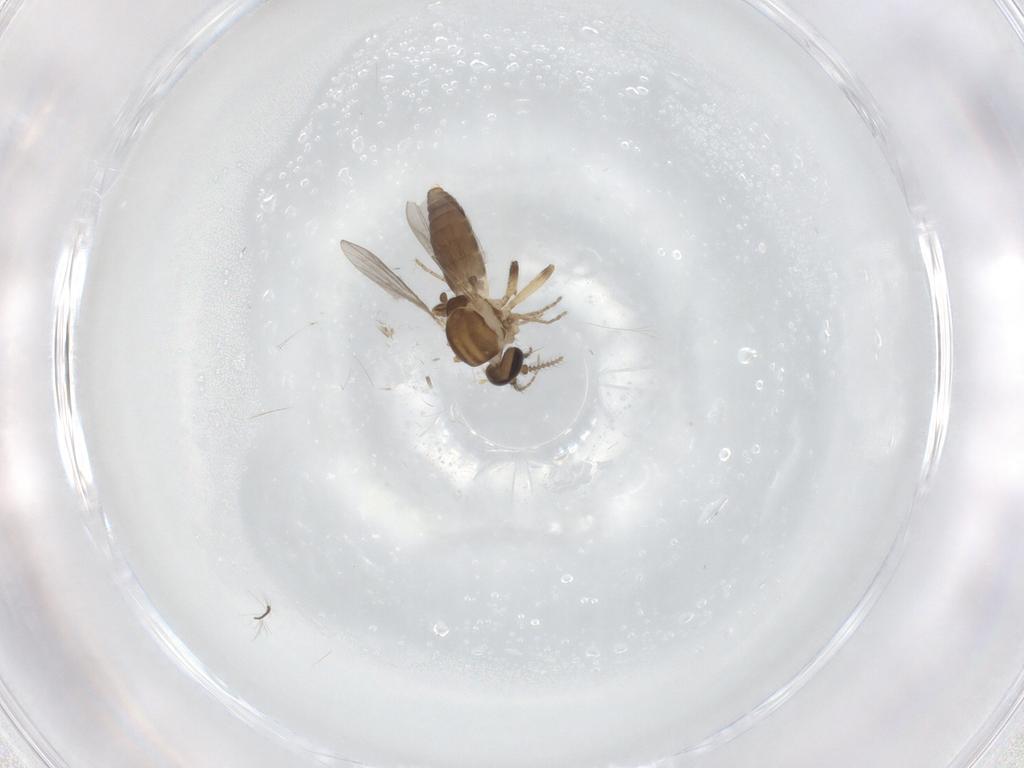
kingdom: Animalia
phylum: Arthropoda
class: Insecta
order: Diptera
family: Ceratopogonidae
